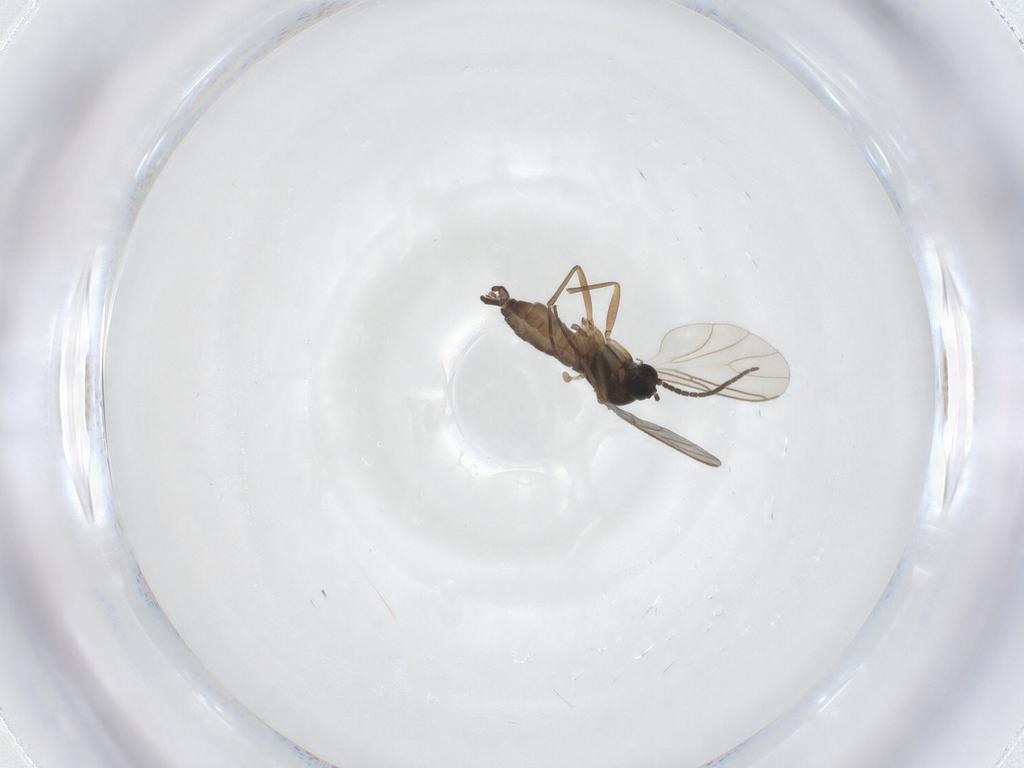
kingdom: Animalia
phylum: Arthropoda
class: Insecta
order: Diptera
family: Sciaridae
